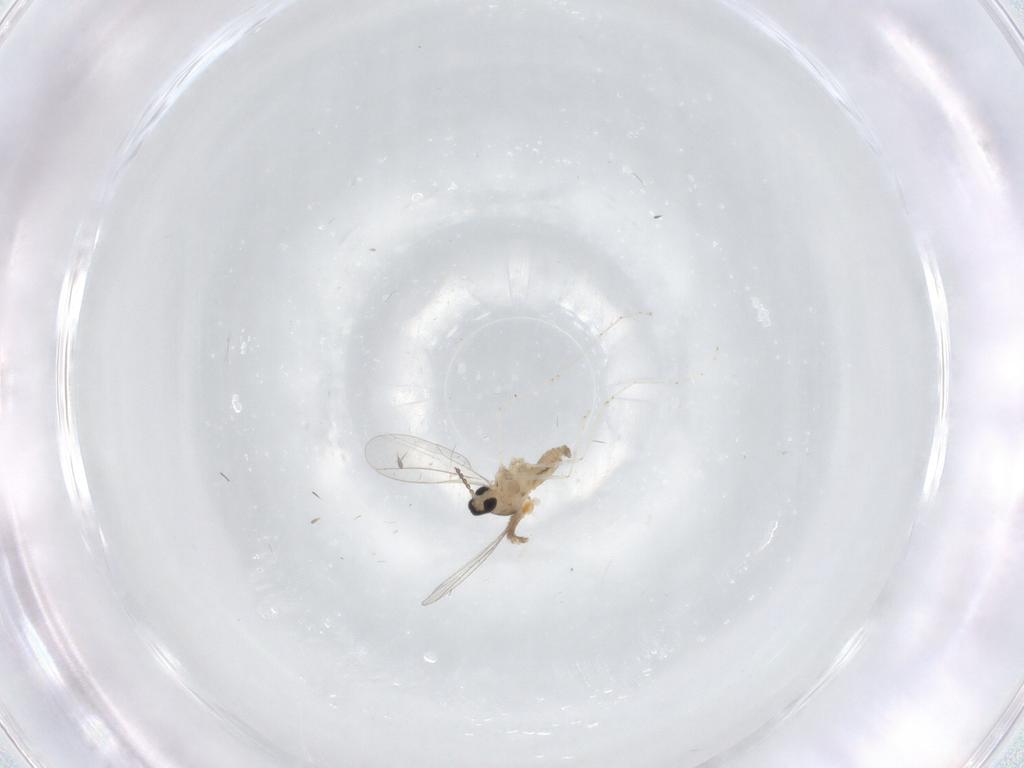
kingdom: Animalia
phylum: Arthropoda
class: Insecta
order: Diptera
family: Cecidomyiidae
